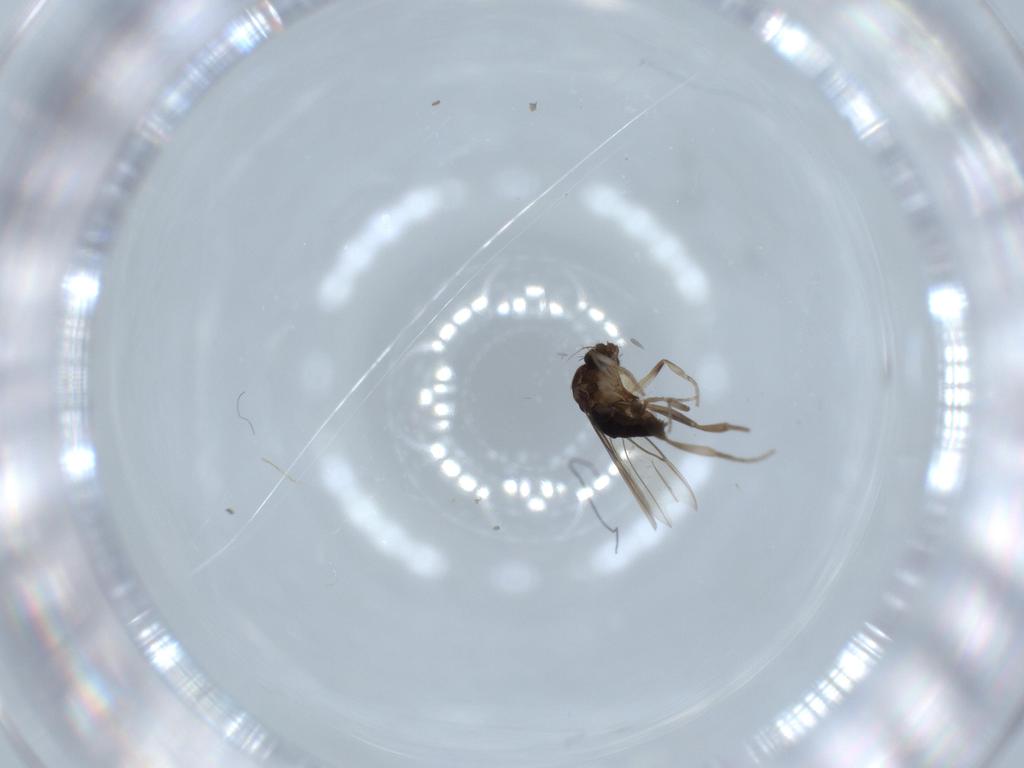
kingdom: Animalia
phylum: Arthropoda
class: Insecta
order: Diptera
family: Phoridae
